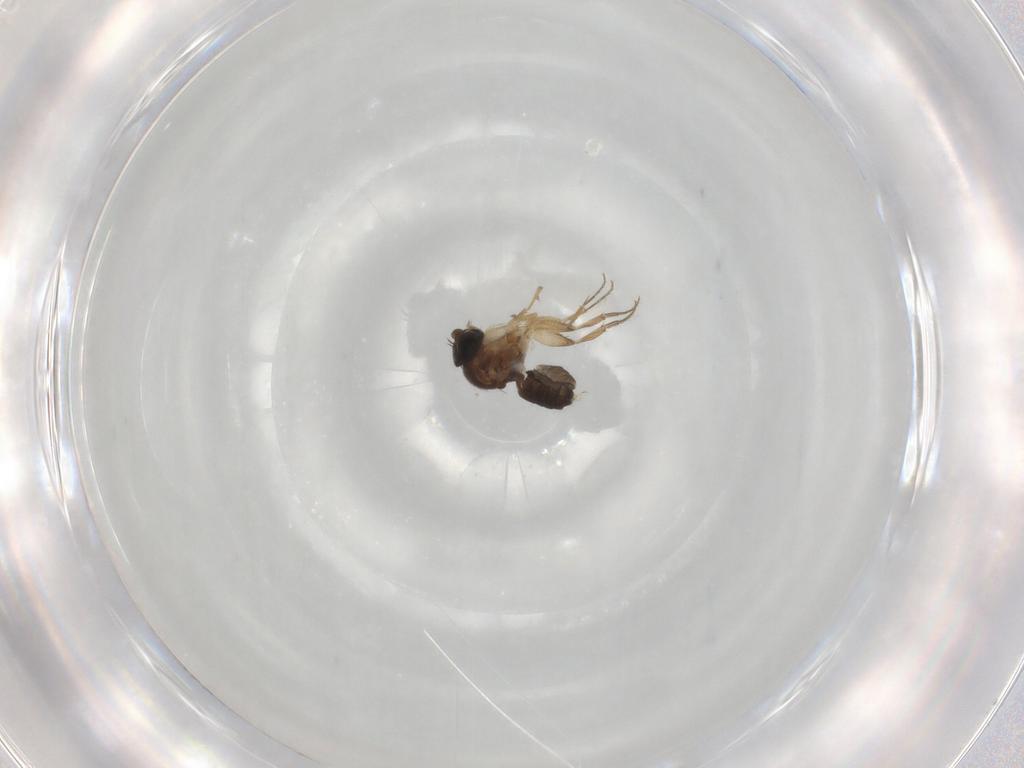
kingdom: Animalia
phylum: Arthropoda
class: Insecta
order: Diptera
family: Phoridae
